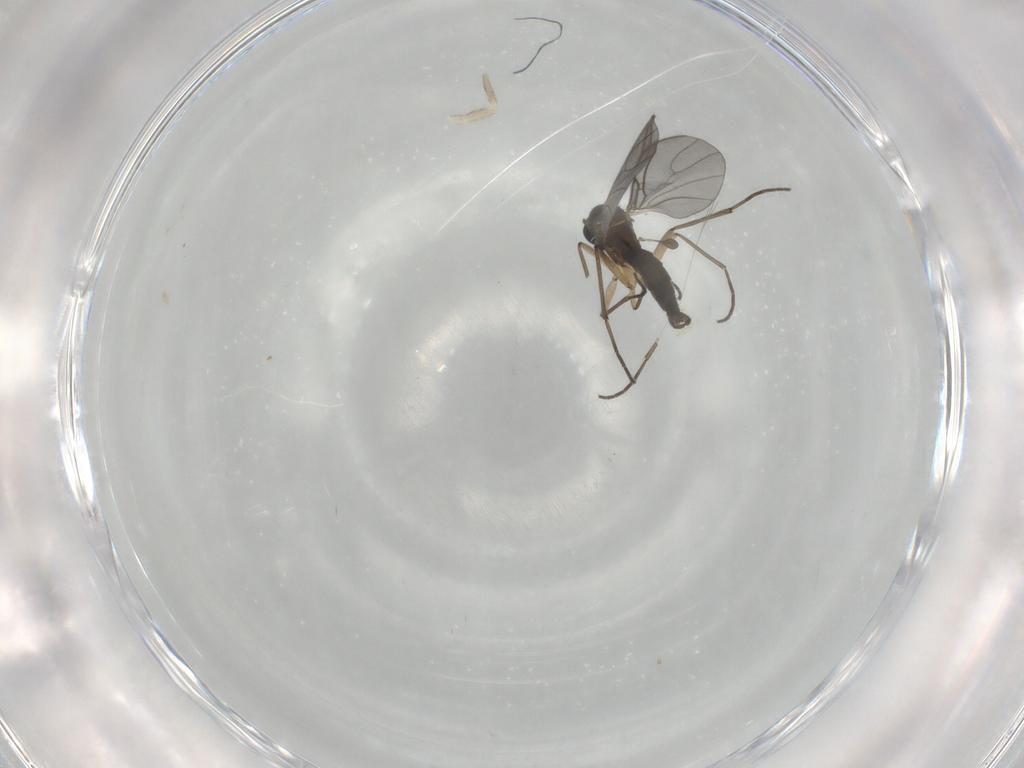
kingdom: Animalia
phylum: Arthropoda
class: Insecta
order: Diptera
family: Sciaridae
